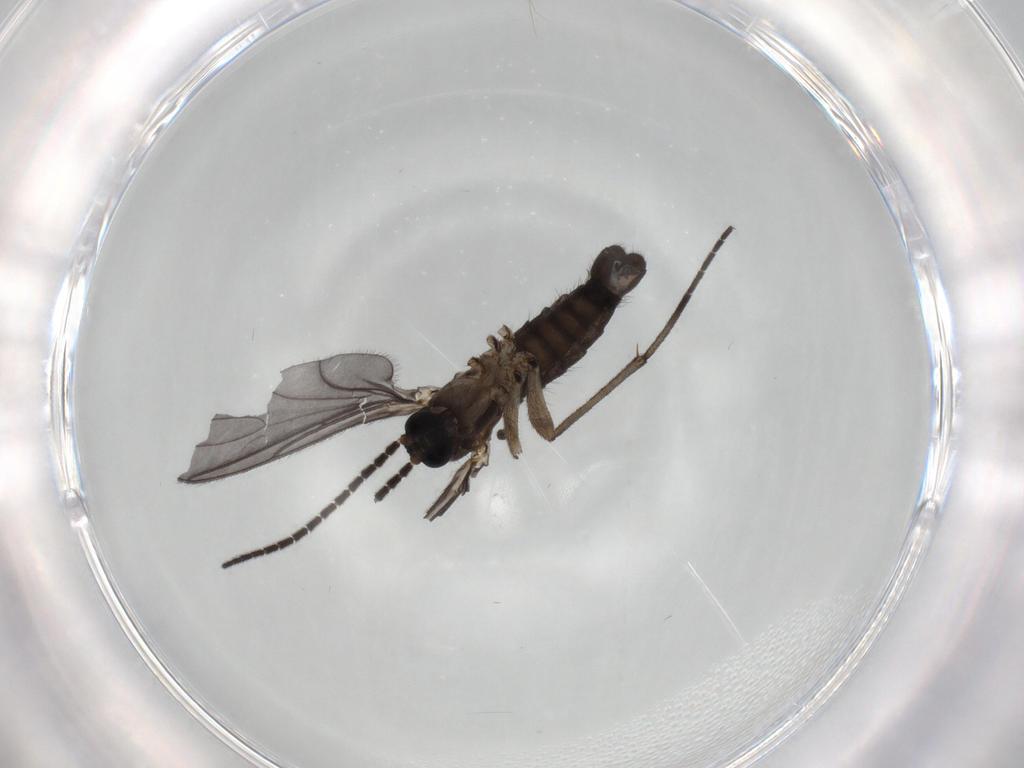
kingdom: Animalia
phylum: Arthropoda
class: Insecta
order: Diptera
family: Sciaridae
